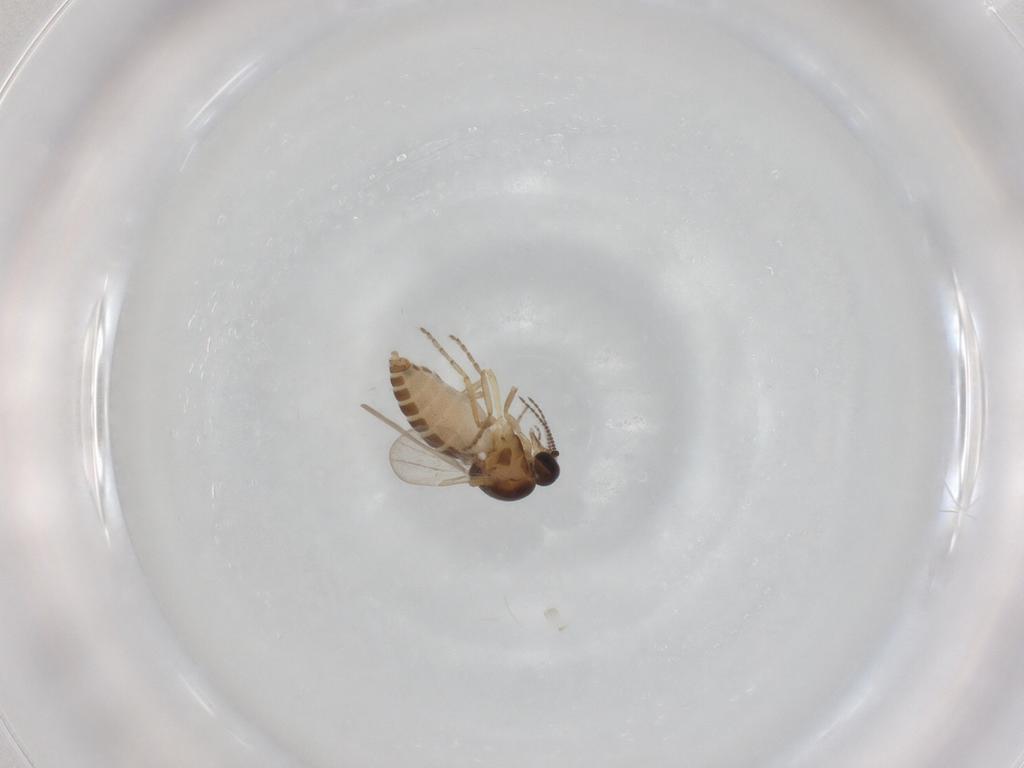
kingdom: Animalia
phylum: Arthropoda
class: Insecta
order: Diptera
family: Ceratopogonidae
